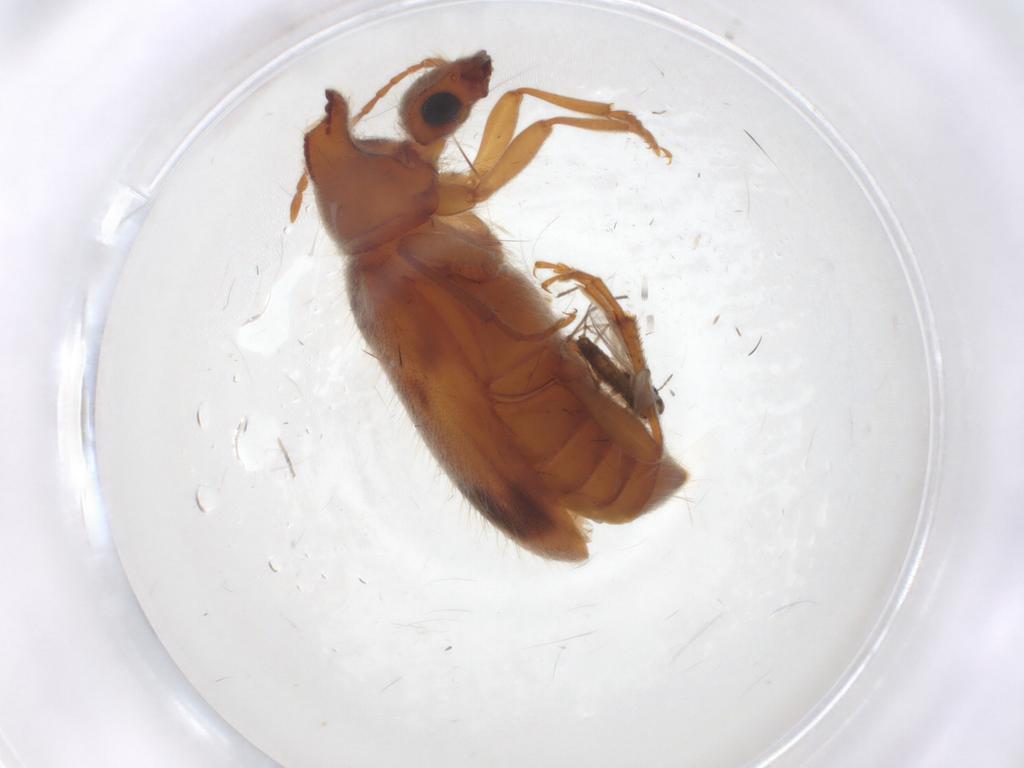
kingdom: Animalia
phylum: Arthropoda
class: Insecta
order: Coleoptera
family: Anthicidae
